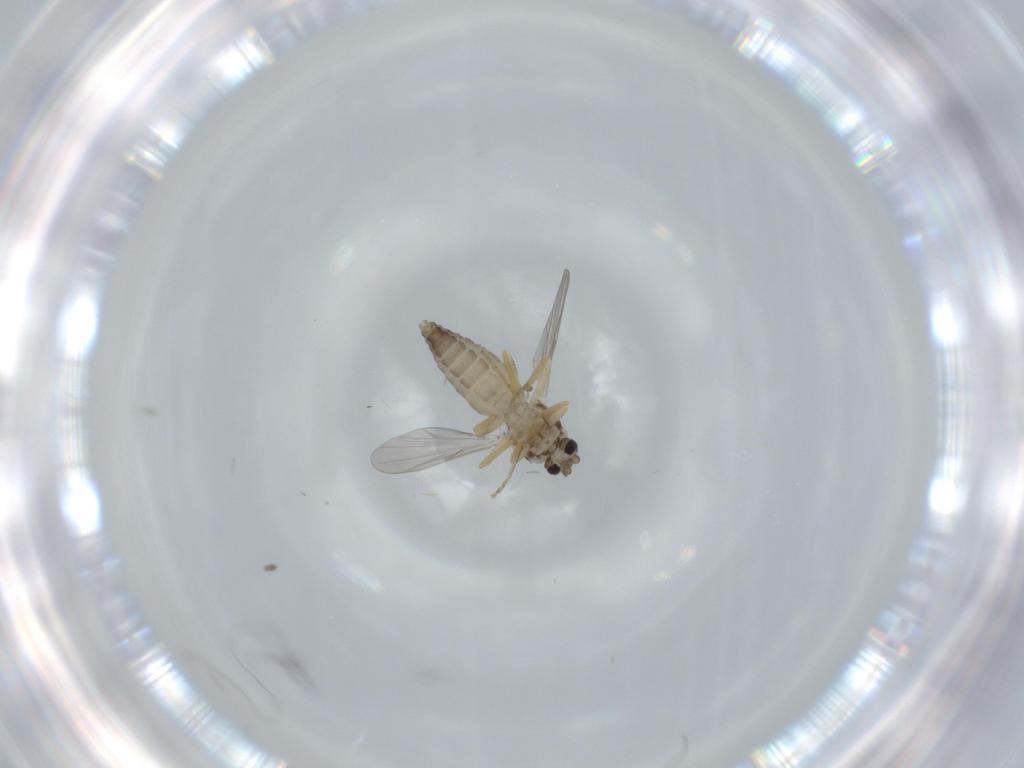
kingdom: Animalia
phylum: Arthropoda
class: Insecta
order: Diptera
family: Ceratopogonidae
